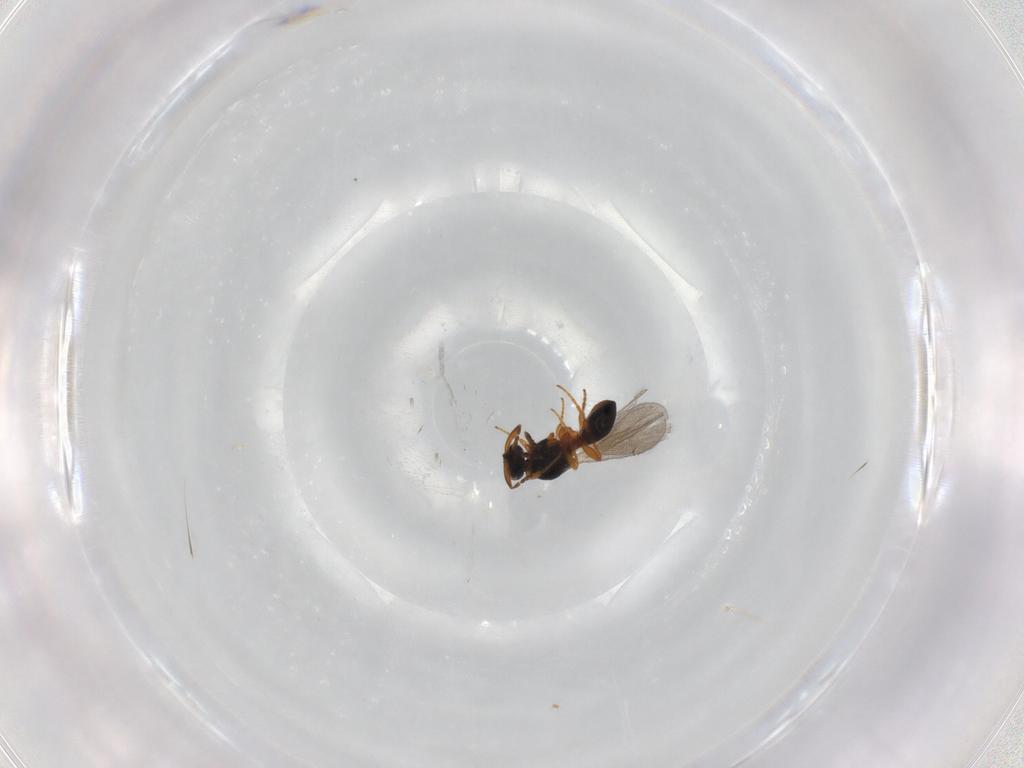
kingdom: Animalia
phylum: Arthropoda
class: Insecta
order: Hymenoptera
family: Platygastridae
